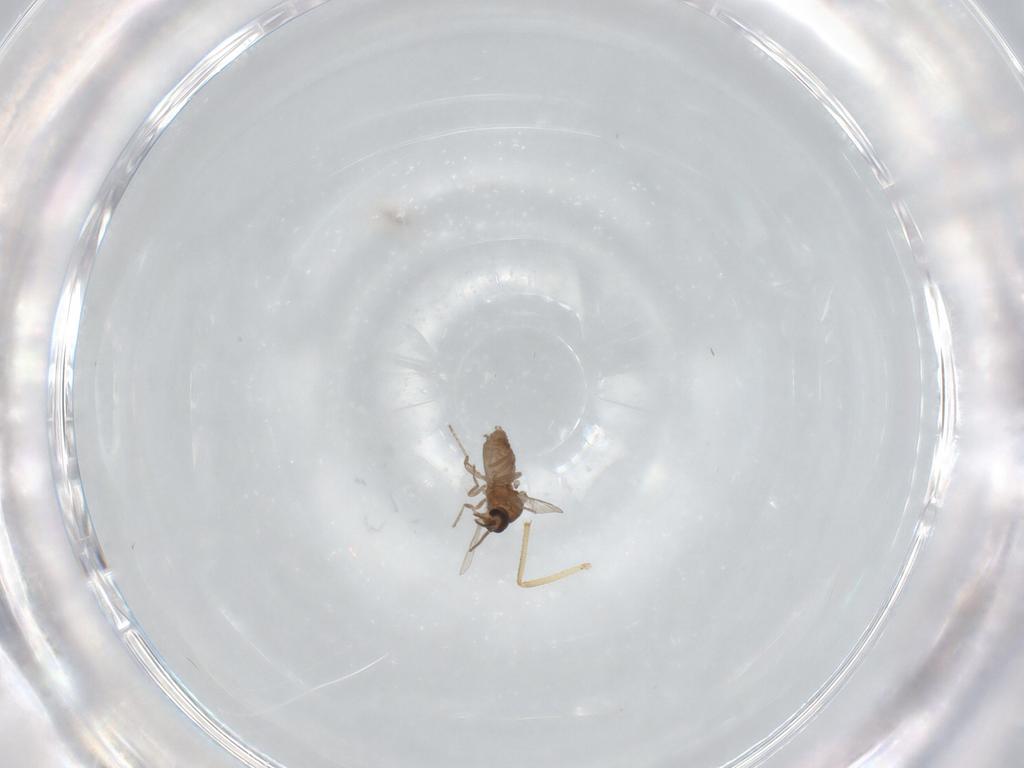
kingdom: Animalia
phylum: Arthropoda
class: Insecta
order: Diptera
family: Ceratopogonidae
